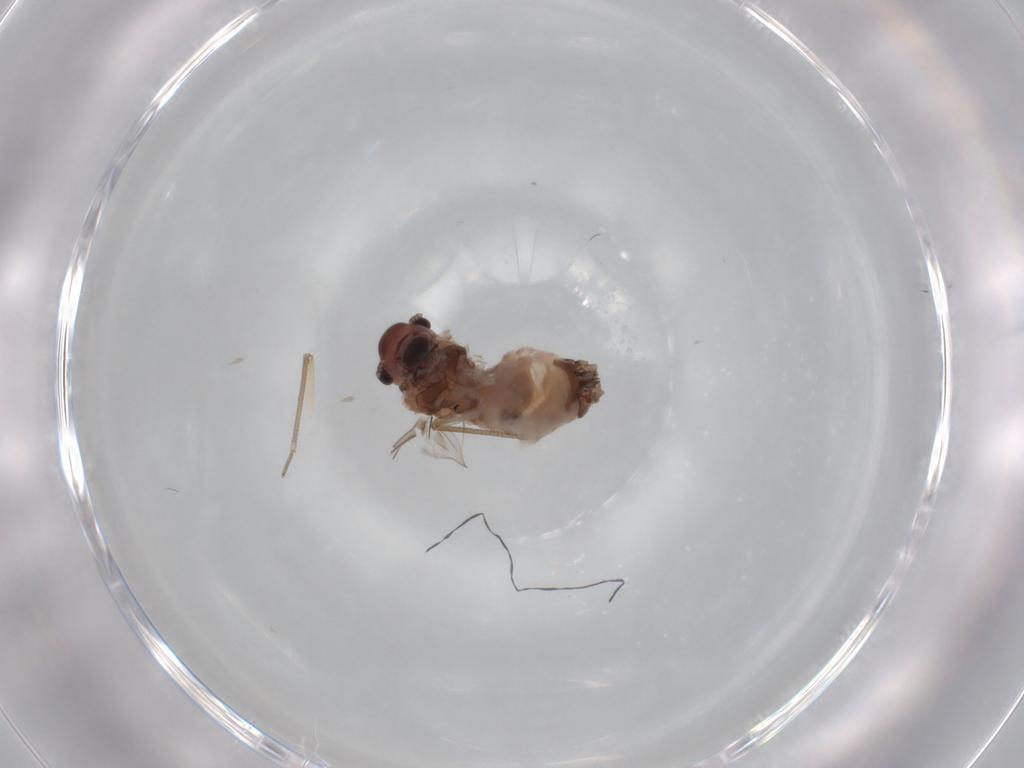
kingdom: Animalia
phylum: Arthropoda
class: Insecta
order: Psocodea
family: Peripsocidae
